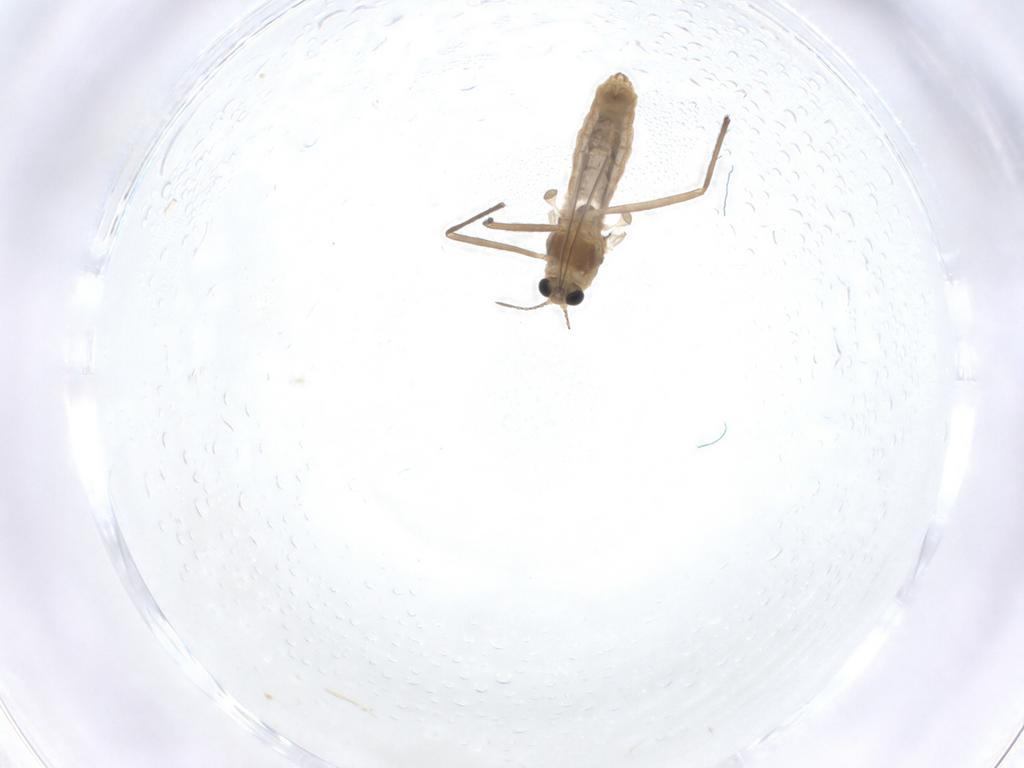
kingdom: Animalia
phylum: Arthropoda
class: Insecta
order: Diptera
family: Chironomidae
